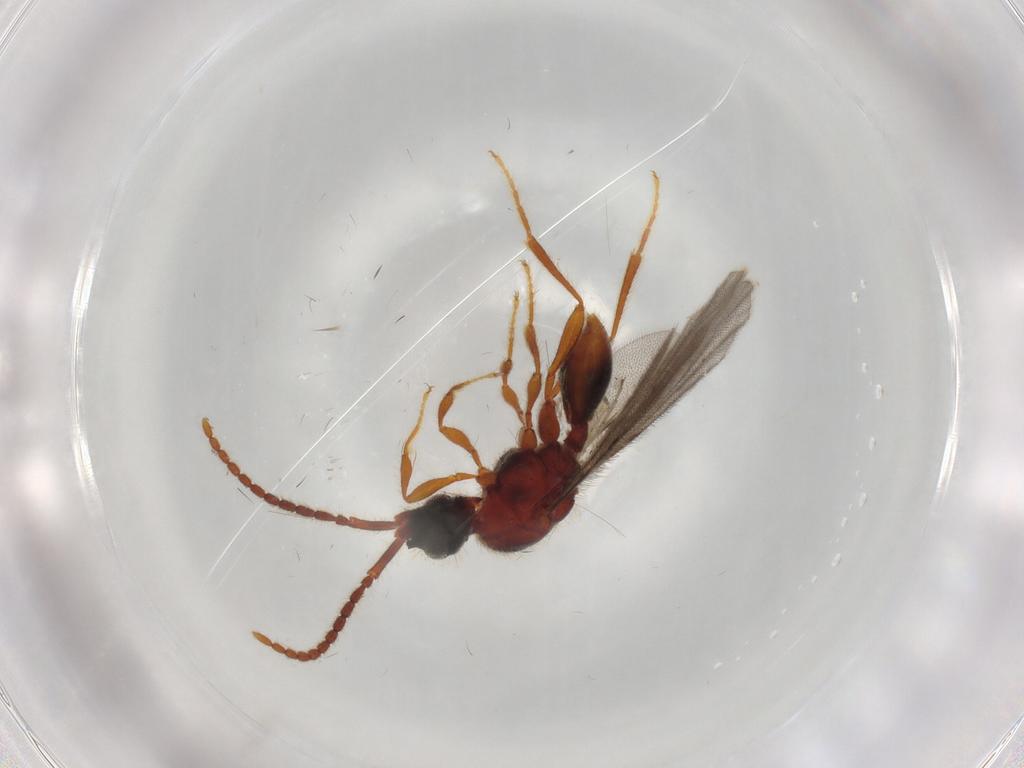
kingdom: Animalia
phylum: Arthropoda
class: Insecta
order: Hymenoptera
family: Diapriidae
